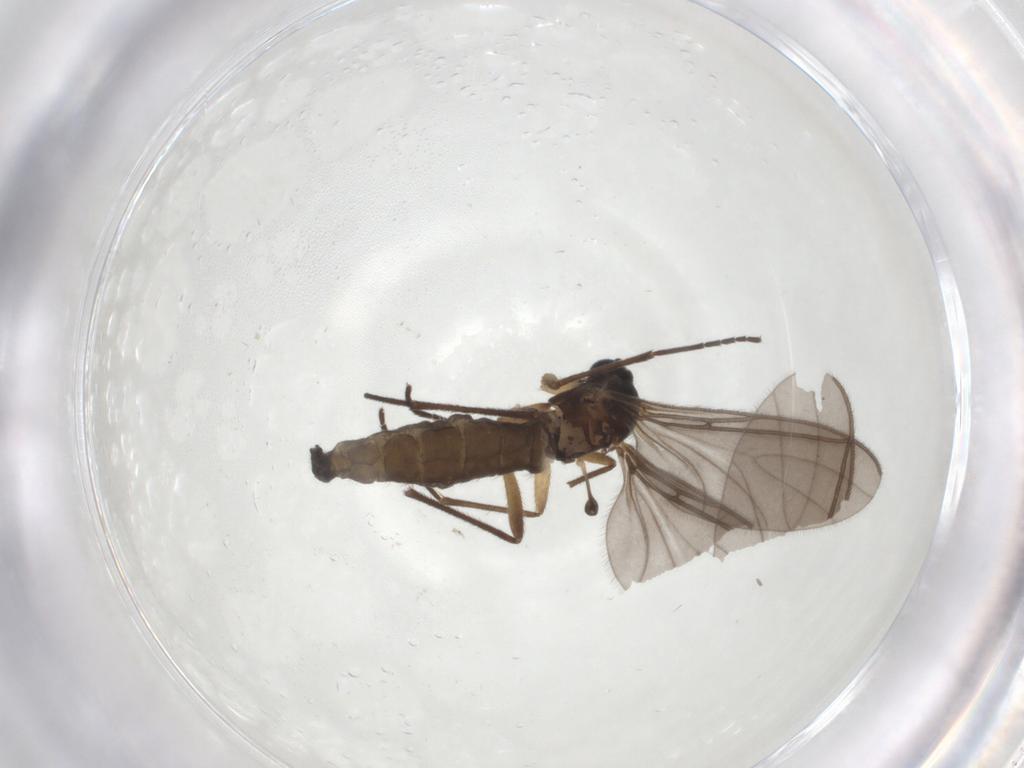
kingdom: Animalia
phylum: Arthropoda
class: Insecta
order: Diptera
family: Sciaridae
